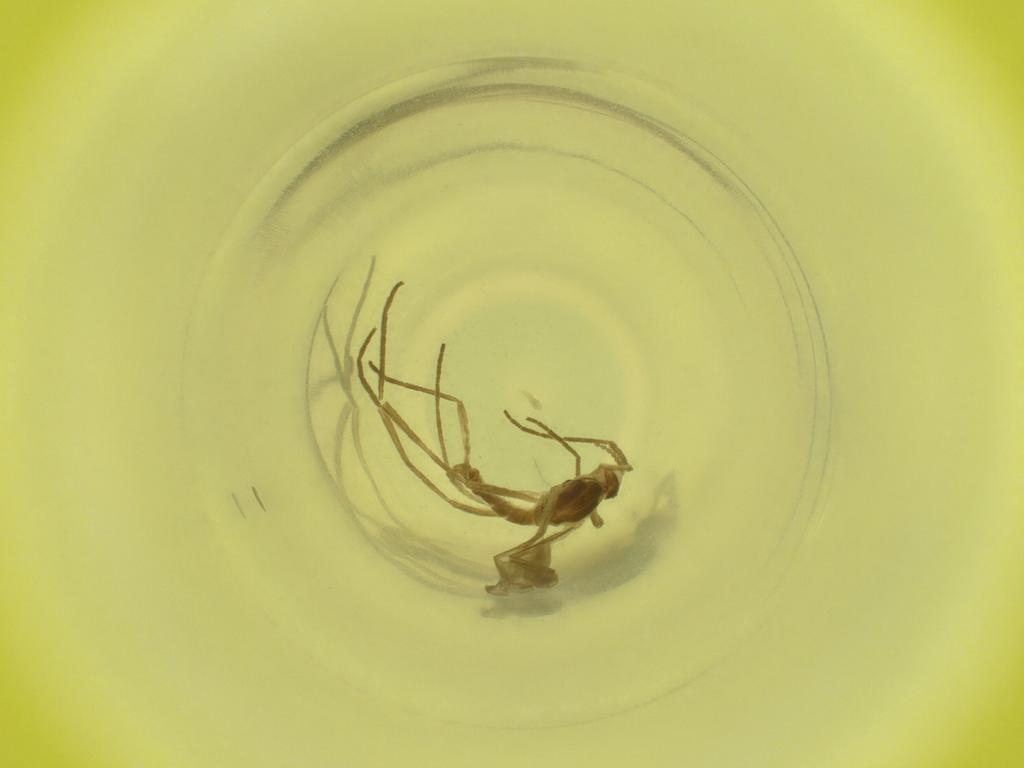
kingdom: Animalia
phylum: Arthropoda
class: Insecta
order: Diptera
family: Cecidomyiidae
